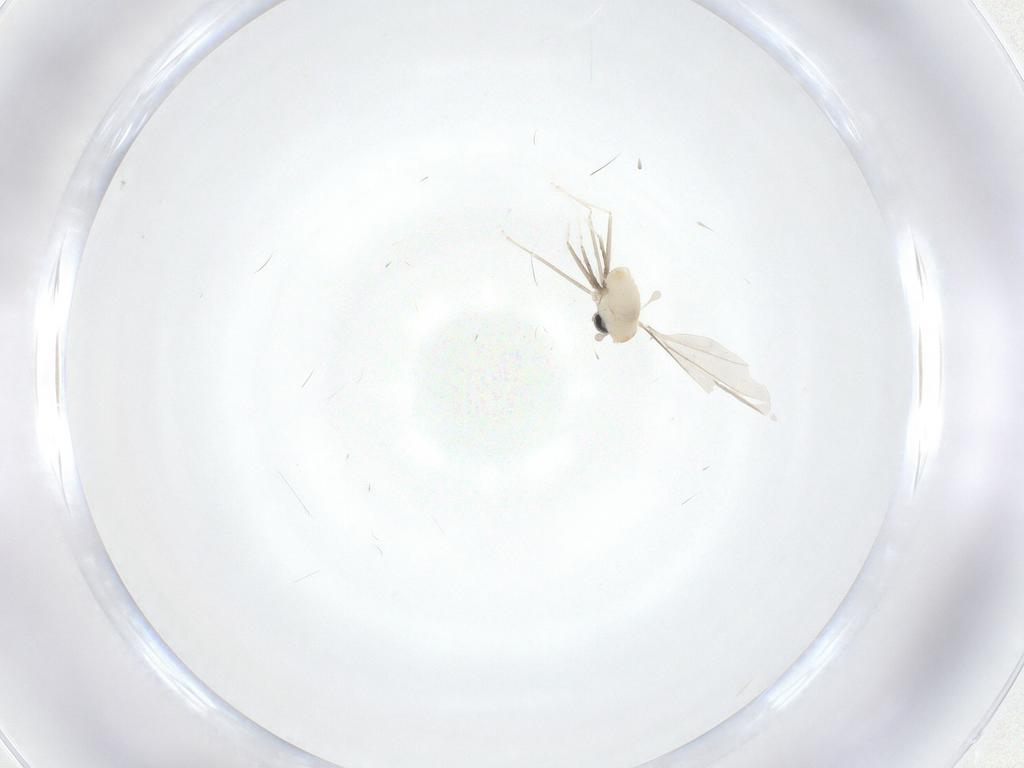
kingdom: Animalia
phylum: Arthropoda
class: Insecta
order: Diptera
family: Cecidomyiidae
